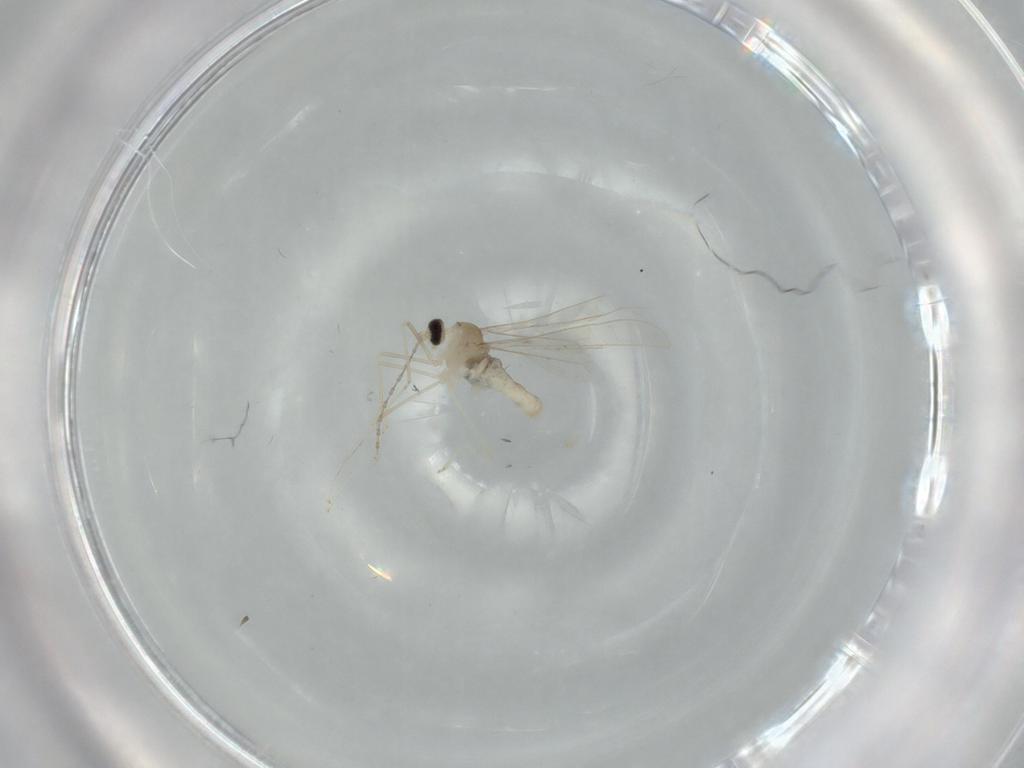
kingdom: Animalia
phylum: Arthropoda
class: Insecta
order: Diptera
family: Cecidomyiidae
